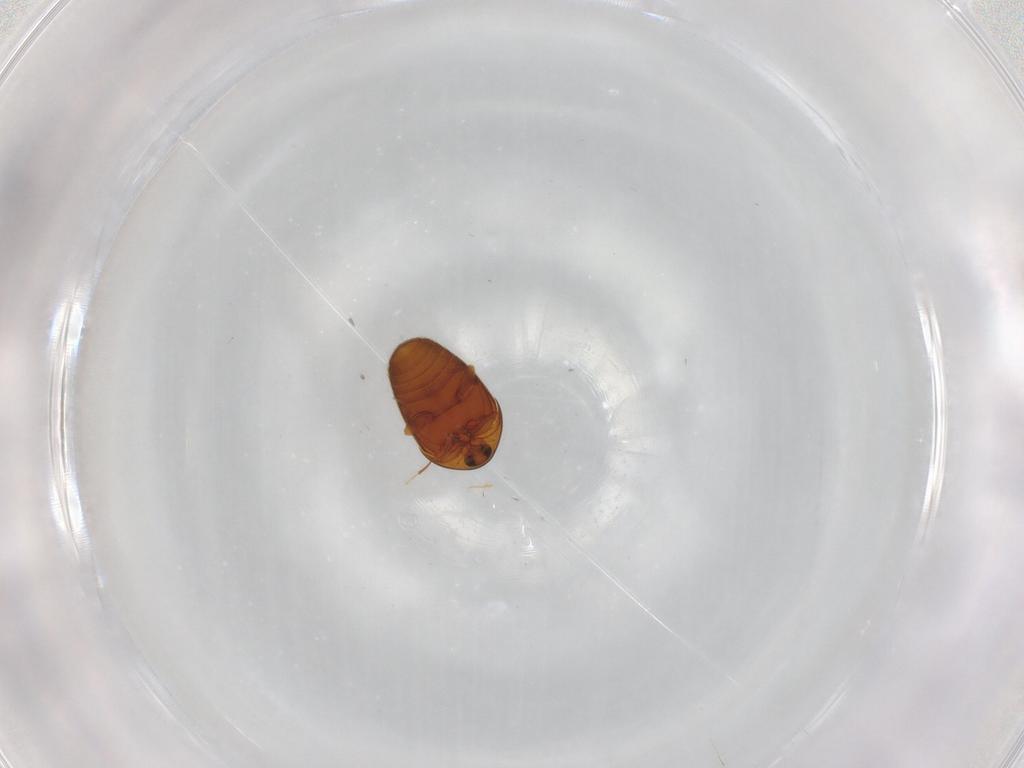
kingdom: Animalia
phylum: Arthropoda
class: Insecta
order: Coleoptera
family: Corylophidae
